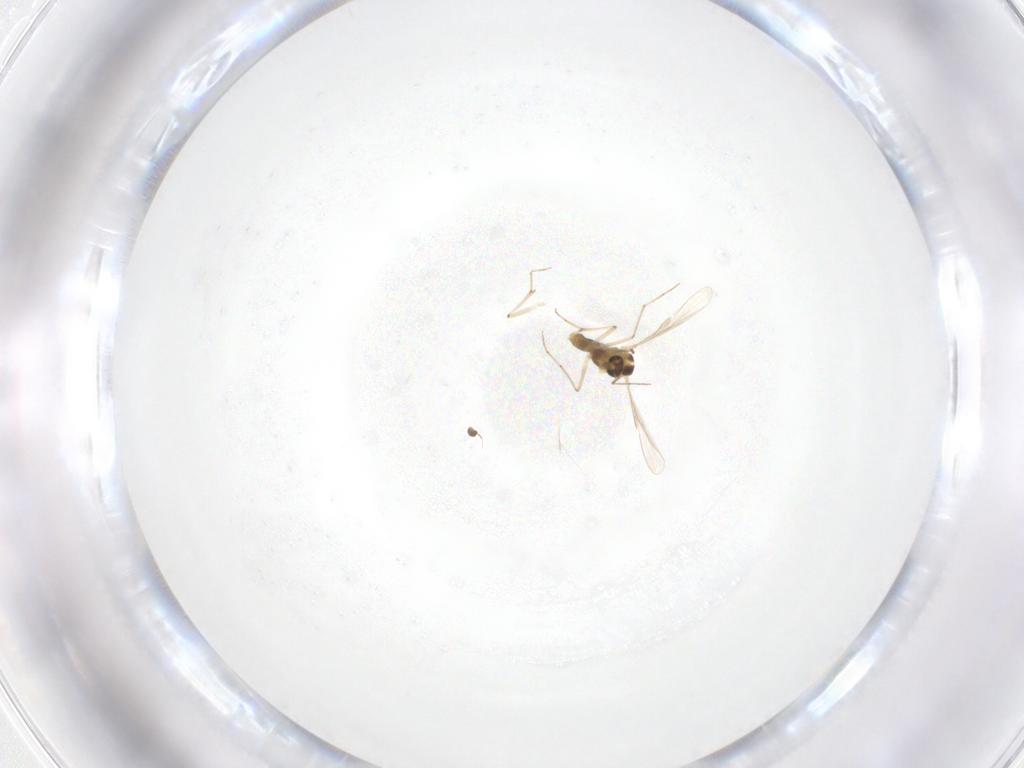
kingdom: Animalia
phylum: Arthropoda
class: Insecta
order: Diptera
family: Chironomidae
